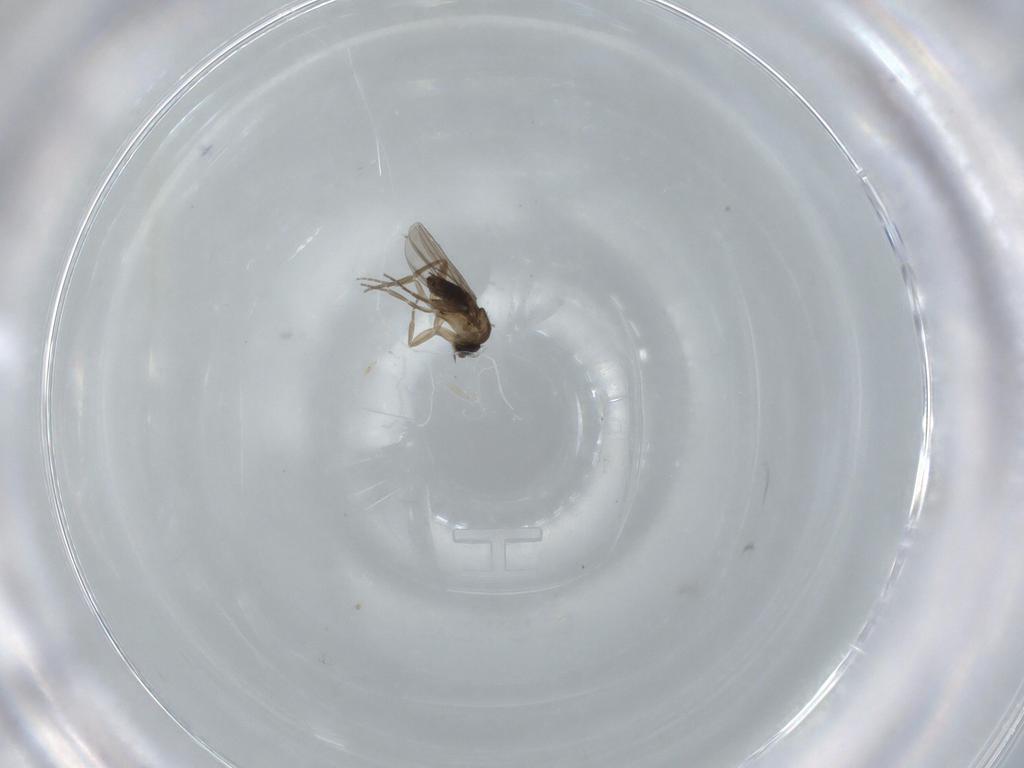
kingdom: Animalia
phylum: Arthropoda
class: Insecta
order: Diptera
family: Phoridae
